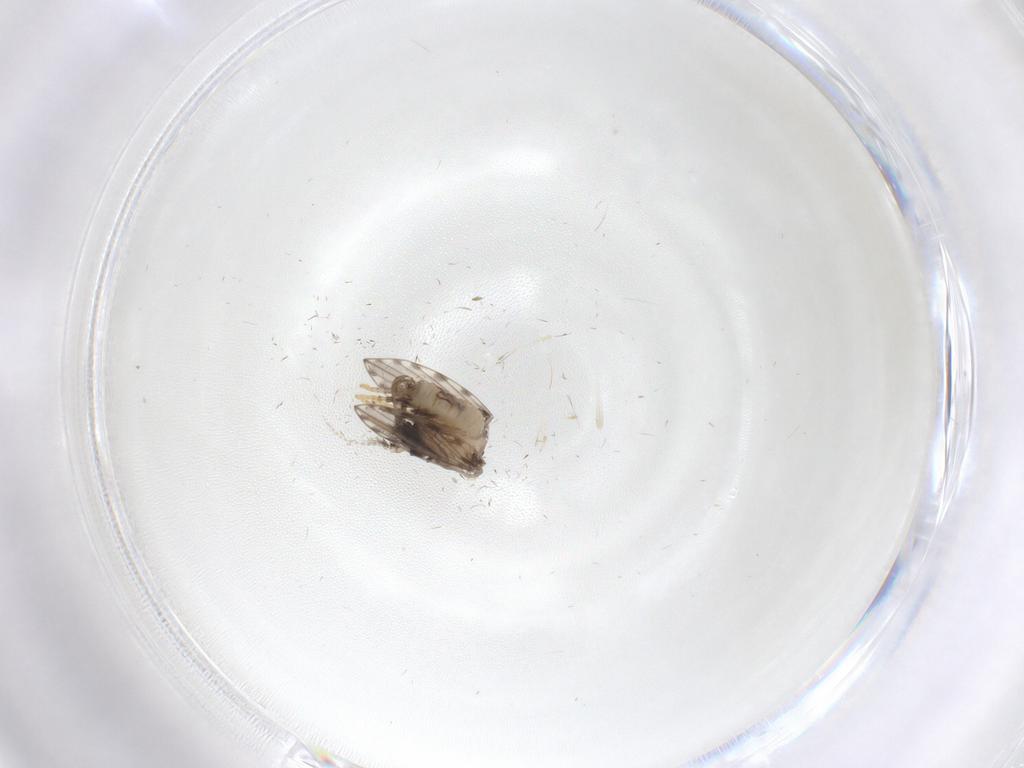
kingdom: Animalia
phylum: Arthropoda
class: Insecta
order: Diptera
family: Psychodidae
